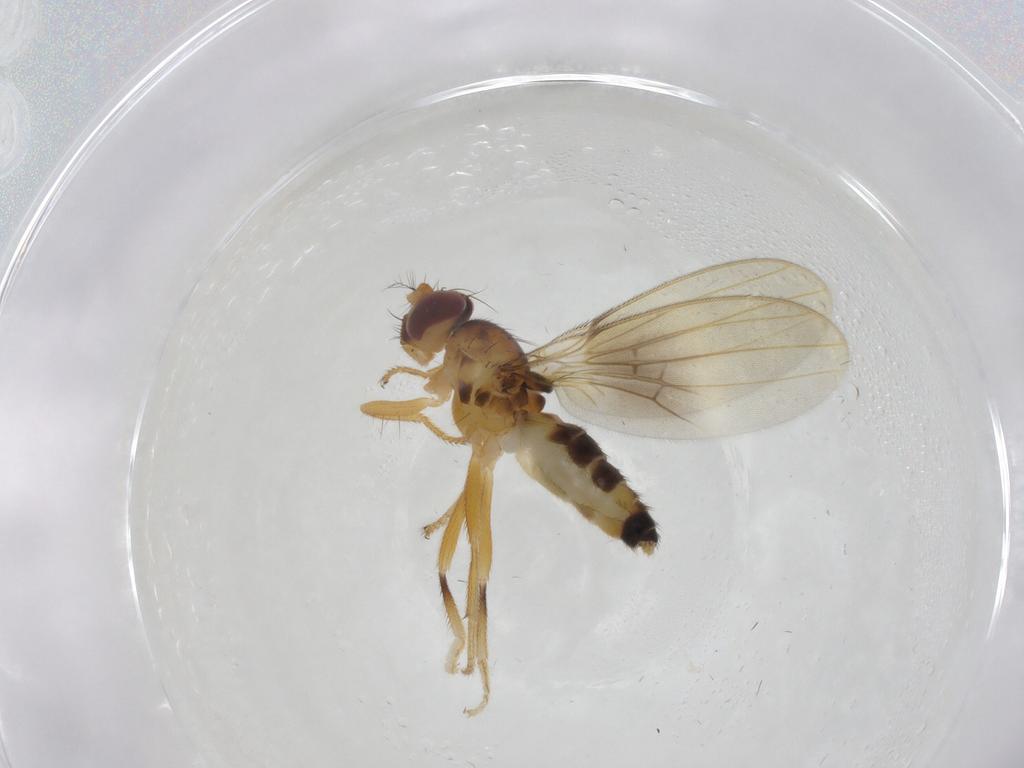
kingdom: Animalia
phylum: Arthropoda
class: Insecta
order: Diptera
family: Periscelididae
